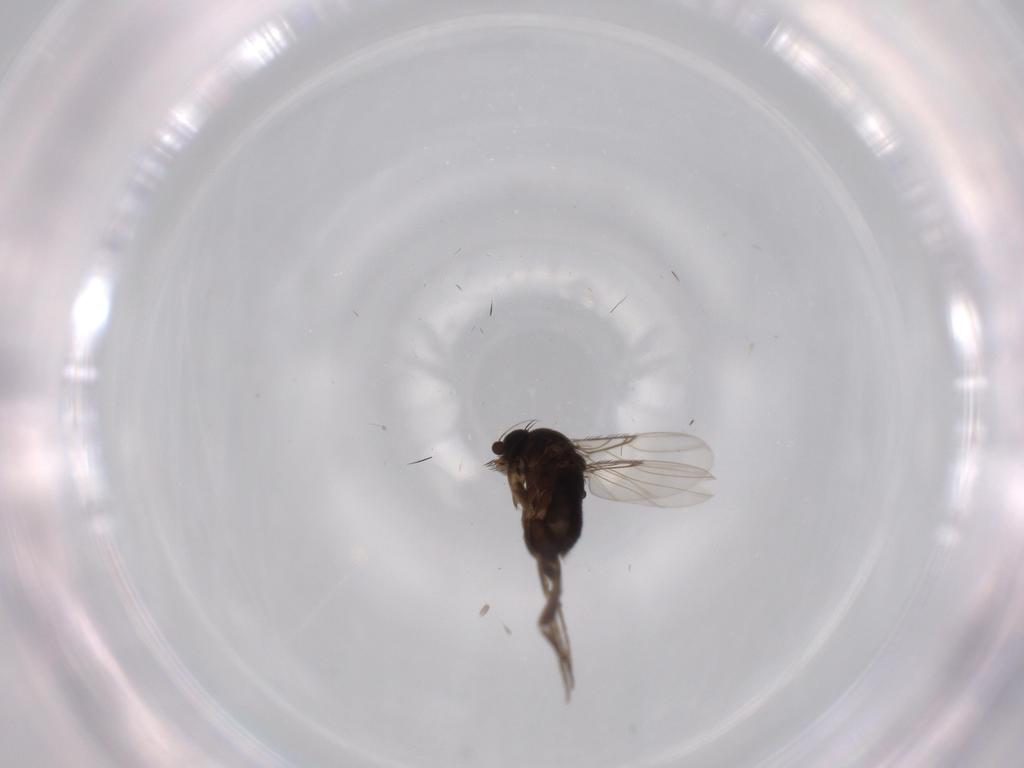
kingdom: Animalia
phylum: Arthropoda
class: Insecta
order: Diptera
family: Phoridae
